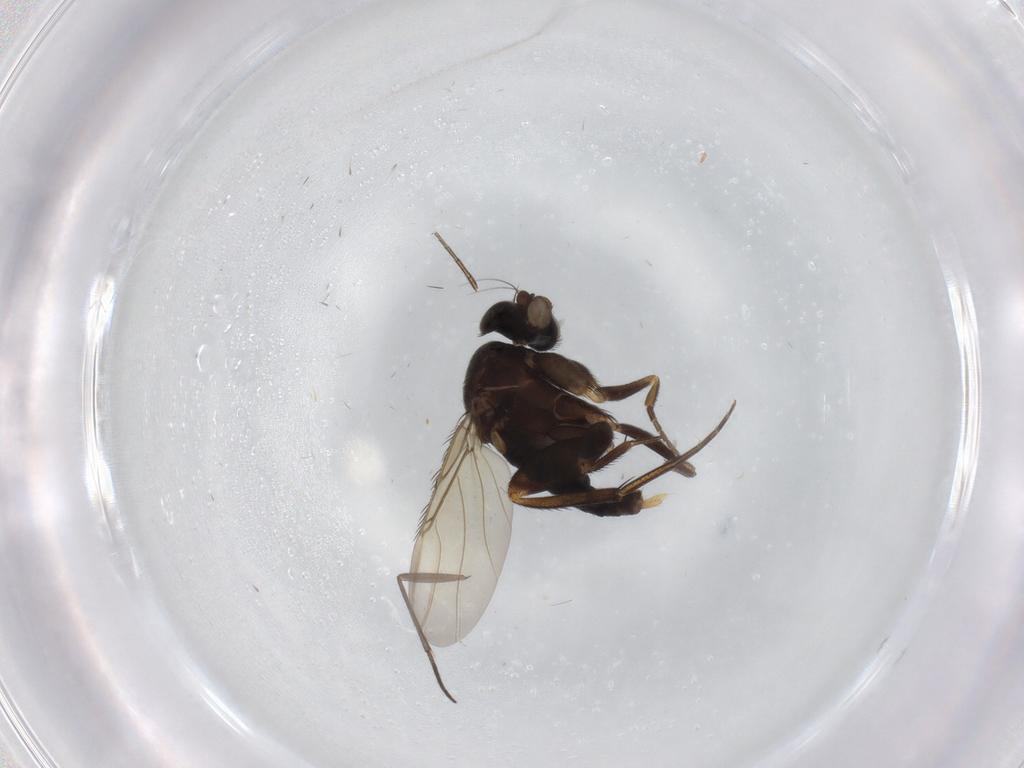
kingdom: Animalia
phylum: Arthropoda
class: Insecta
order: Diptera
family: Sciaridae
